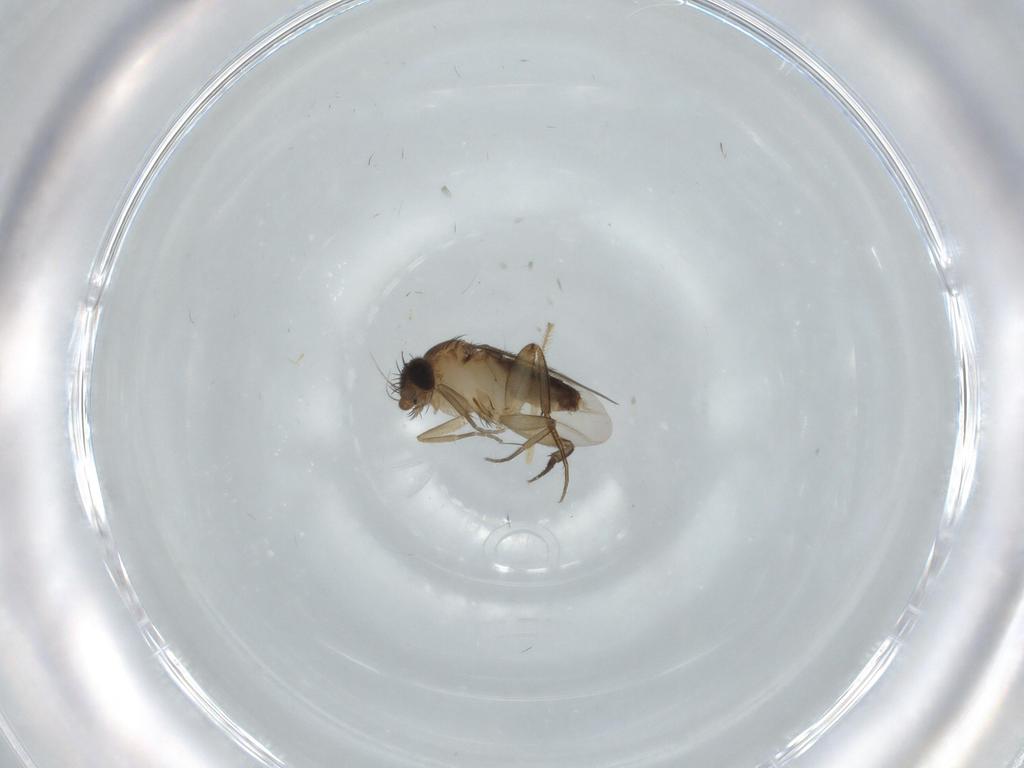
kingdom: Animalia
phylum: Arthropoda
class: Insecta
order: Diptera
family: Phoridae
